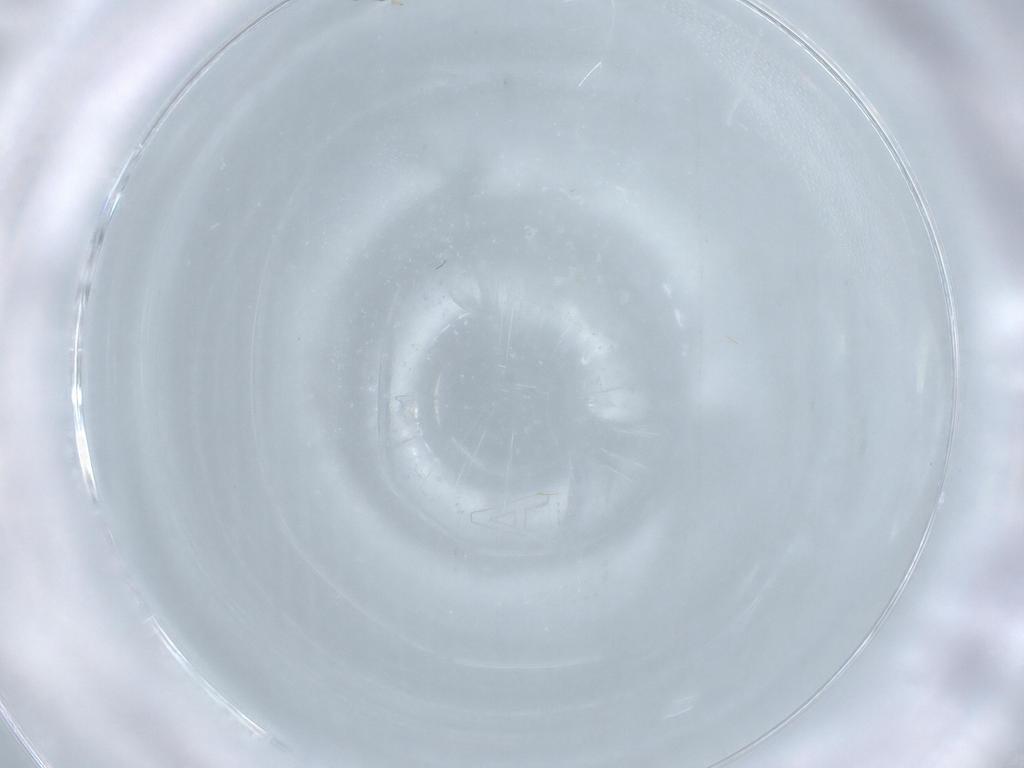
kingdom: Animalia
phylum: Arthropoda
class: Insecta
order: Thysanoptera
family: Thripidae
